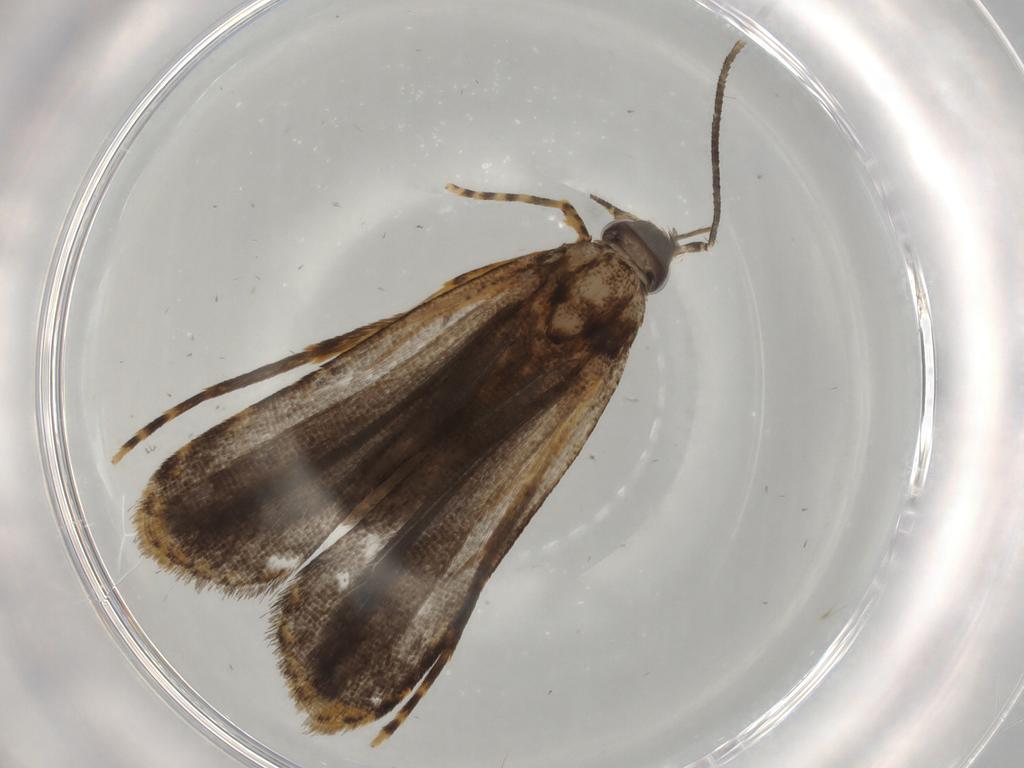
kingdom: Animalia
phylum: Arthropoda
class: Insecta
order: Lepidoptera
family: Cosmopterigidae
